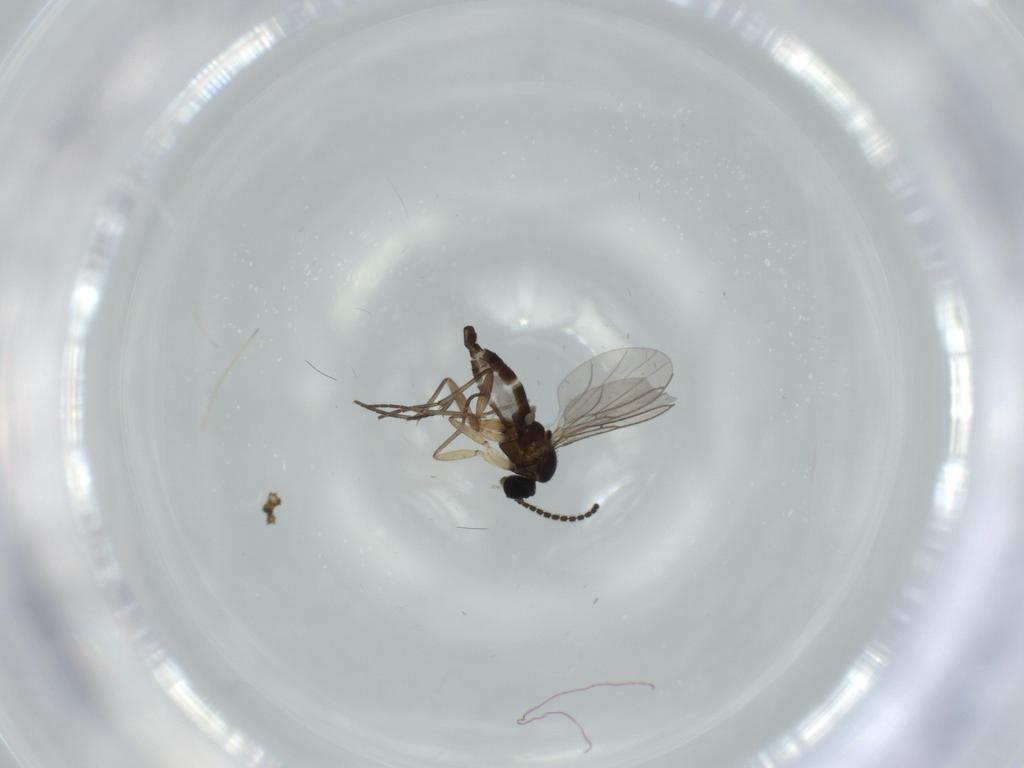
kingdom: Animalia
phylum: Arthropoda
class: Insecta
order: Diptera
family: Sciaridae
